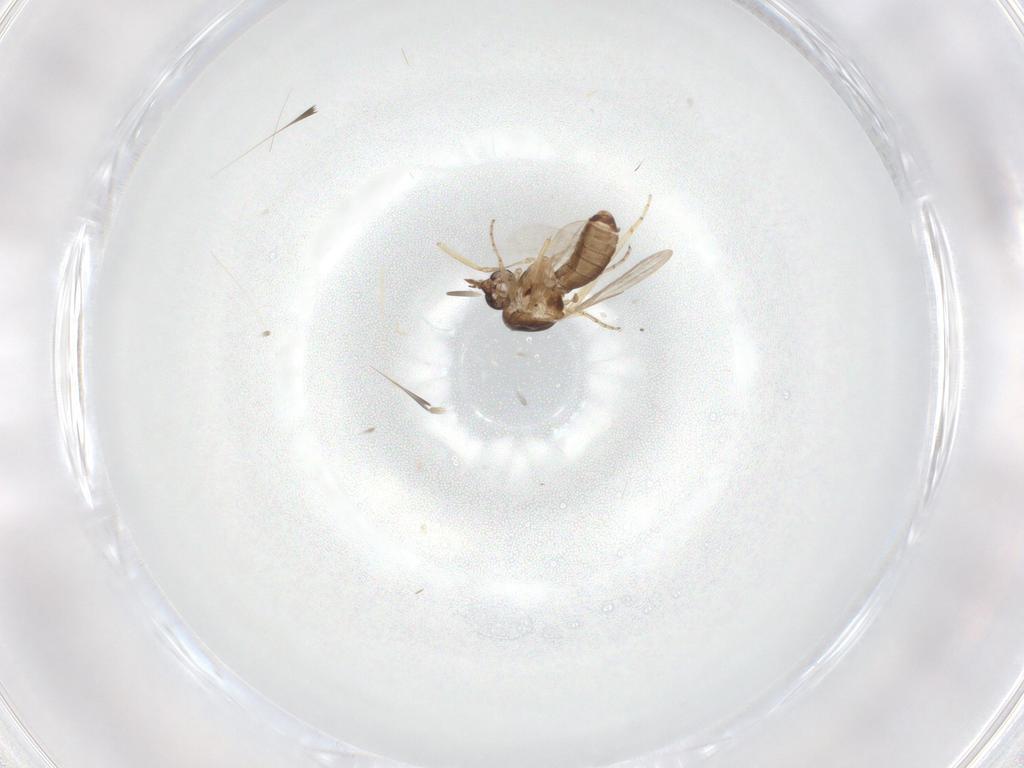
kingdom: Animalia
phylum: Arthropoda
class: Insecta
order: Diptera
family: Ceratopogonidae
